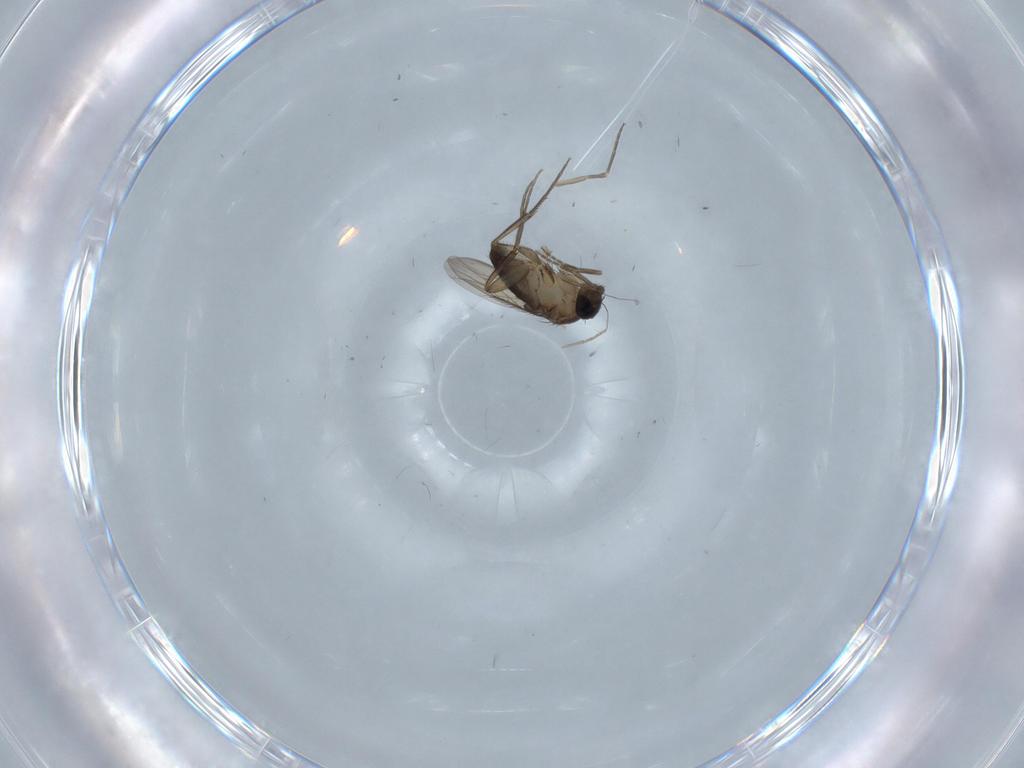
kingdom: Animalia
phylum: Arthropoda
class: Insecta
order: Diptera
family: Phoridae
